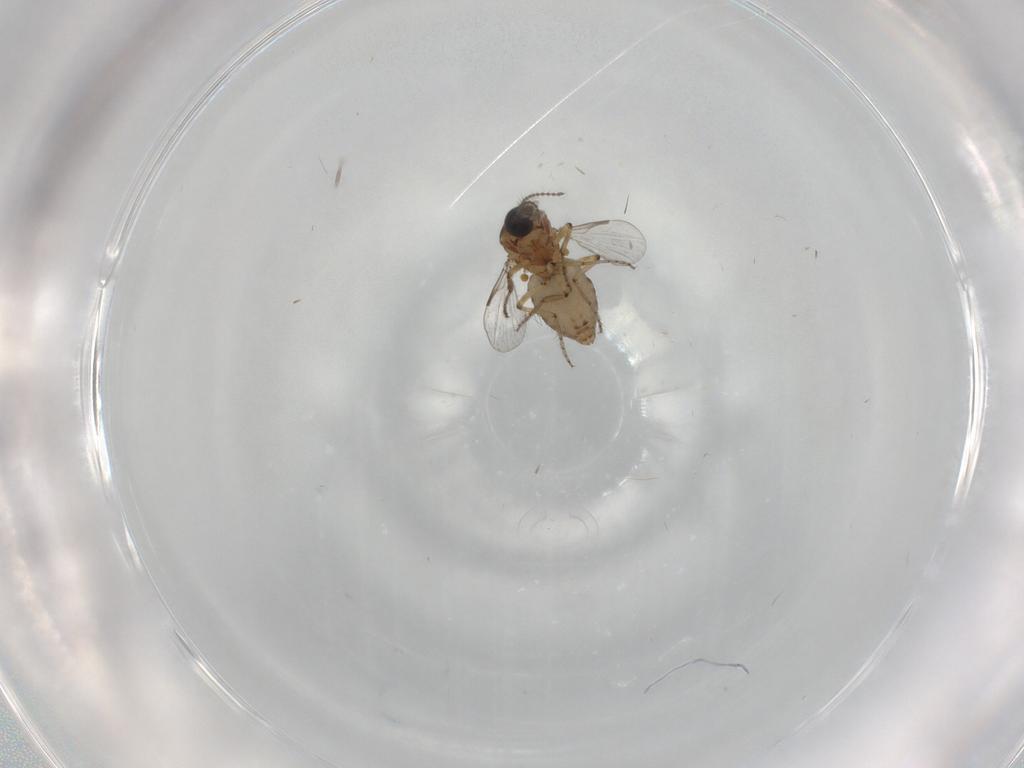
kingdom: Animalia
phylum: Arthropoda
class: Insecta
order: Diptera
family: Ceratopogonidae
